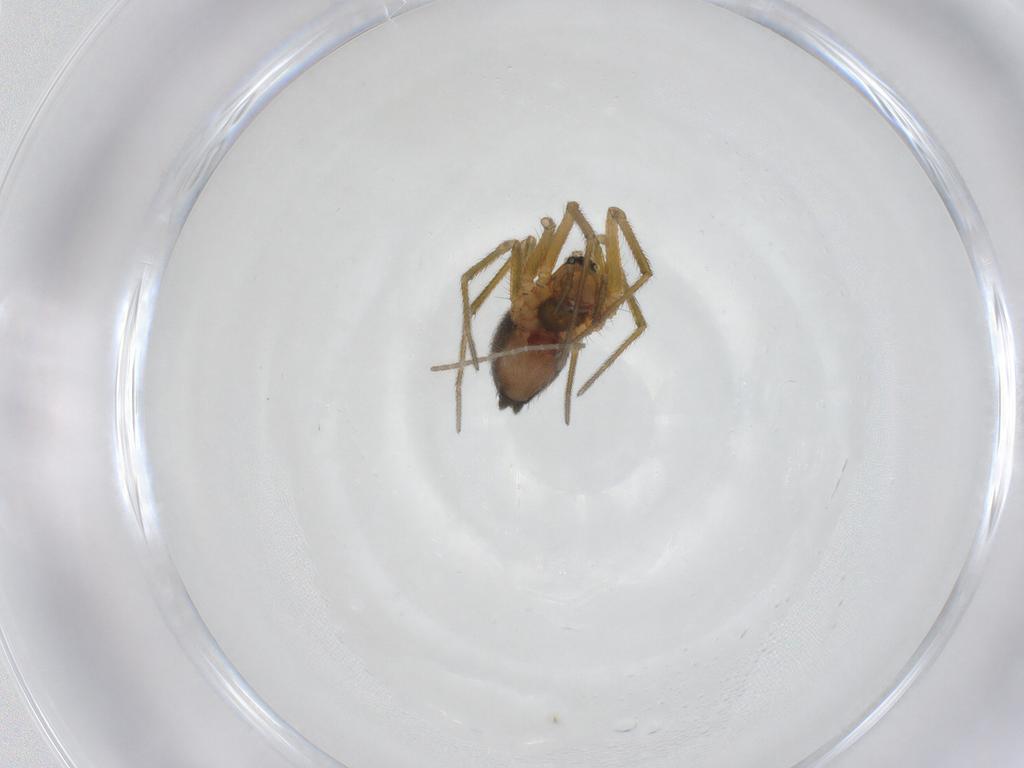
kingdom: Animalia
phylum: Arthropoda
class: Arachnida
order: Araneae
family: Linyphiidae
